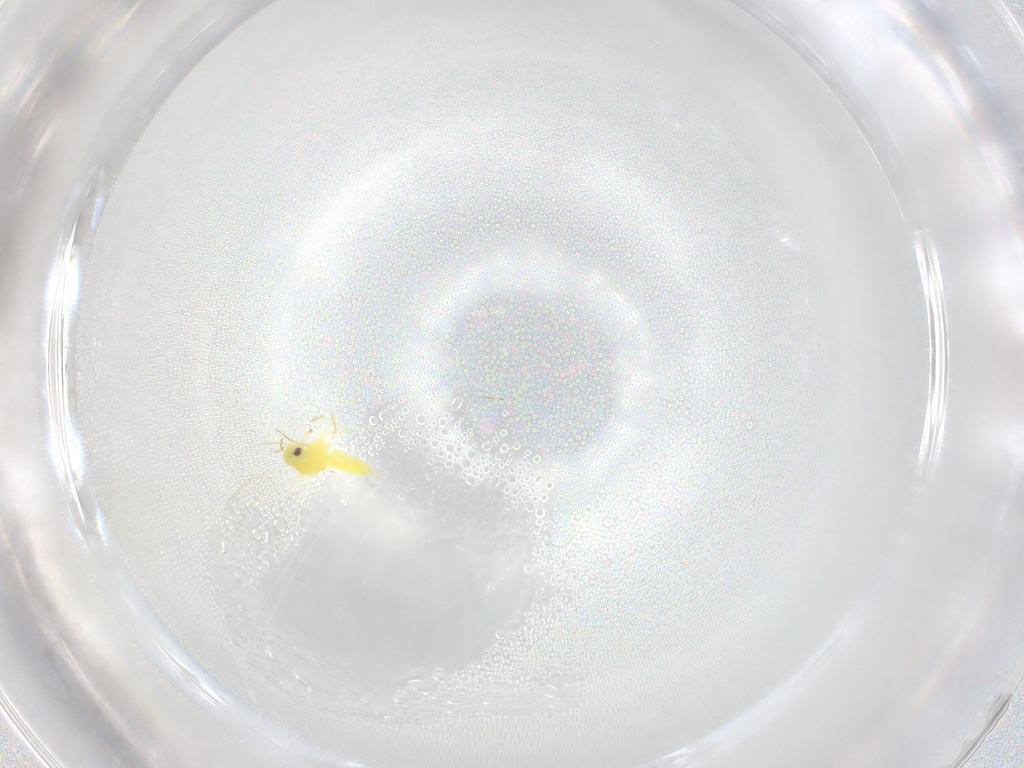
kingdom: Animalia
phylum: Arthropoda
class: Insecta
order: Hemiptera
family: Aleyrodidae
